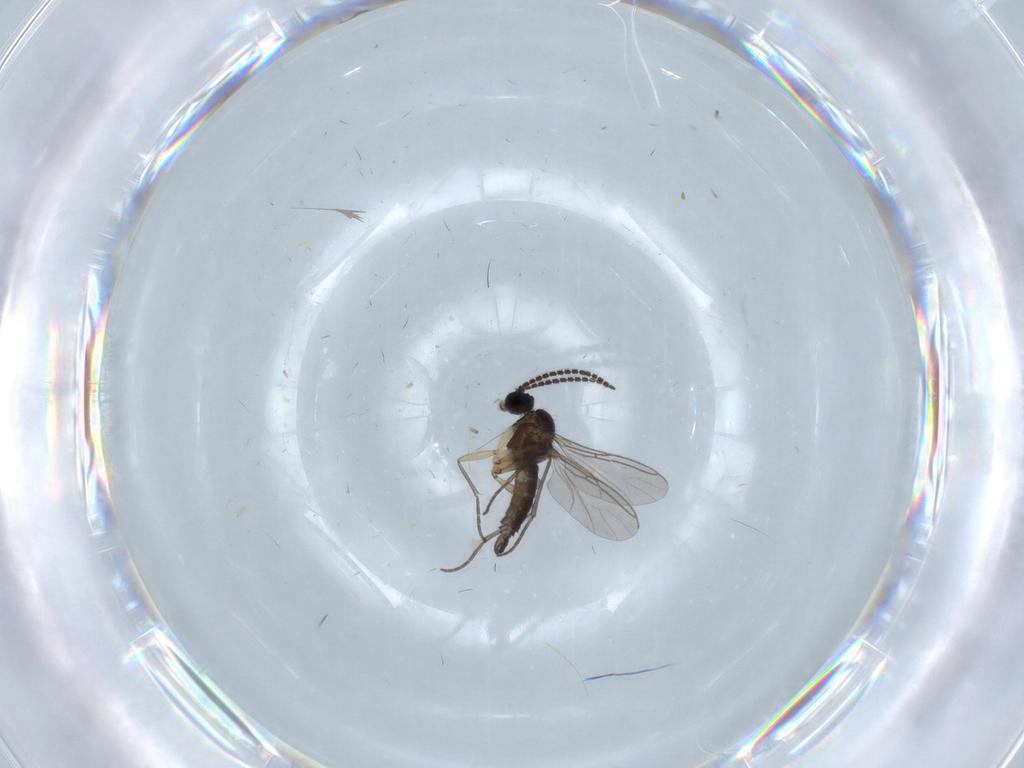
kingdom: Animalia
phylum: Arthropoda
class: Insecta
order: Diptera
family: Sciaridae
